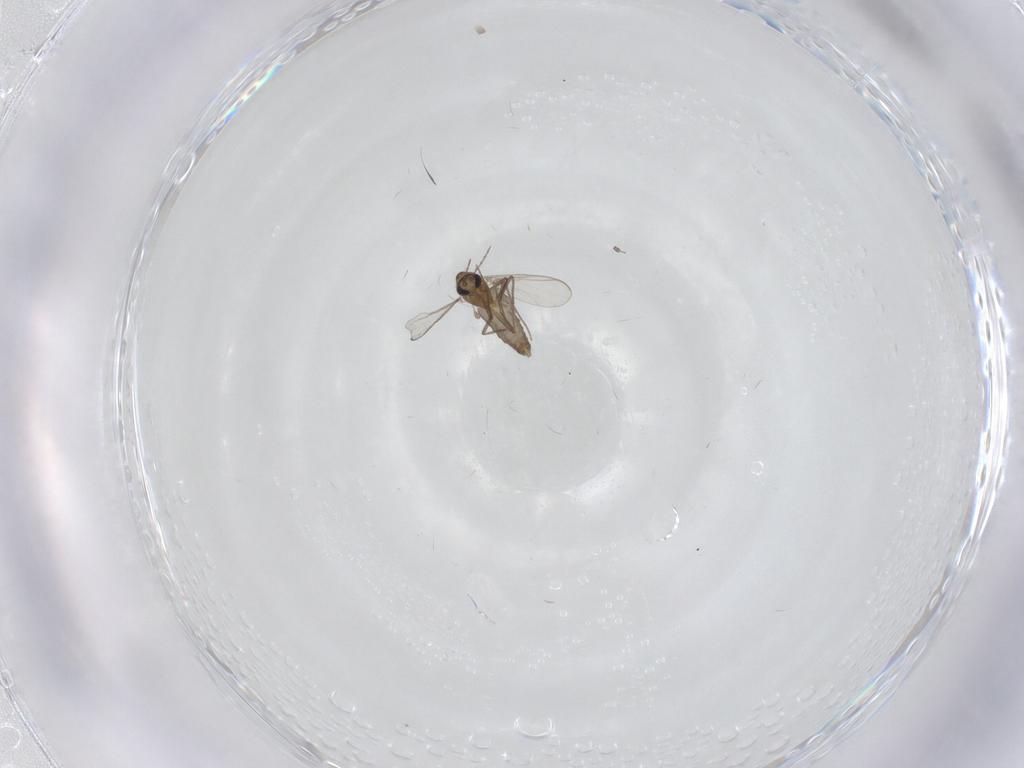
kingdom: Animalia
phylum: Arthropoda
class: Insecta
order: Diptera
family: Chironomidae
